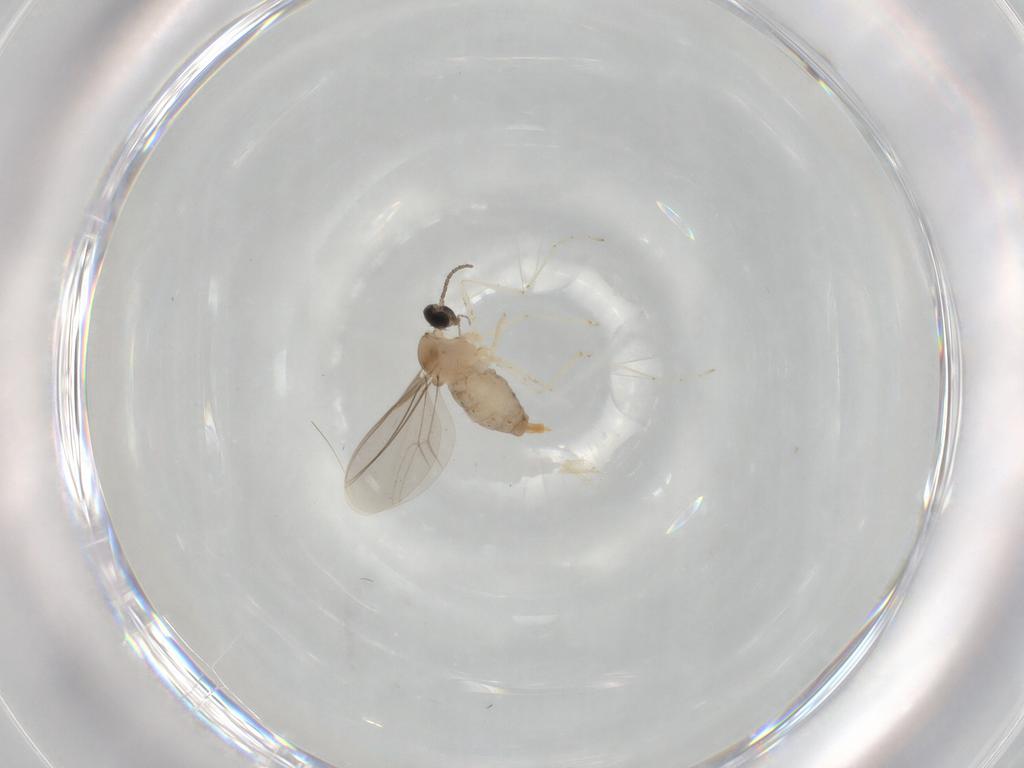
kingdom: Animalia
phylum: Arthropoda
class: Insecta
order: Diptera
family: Cecidomyiidae
